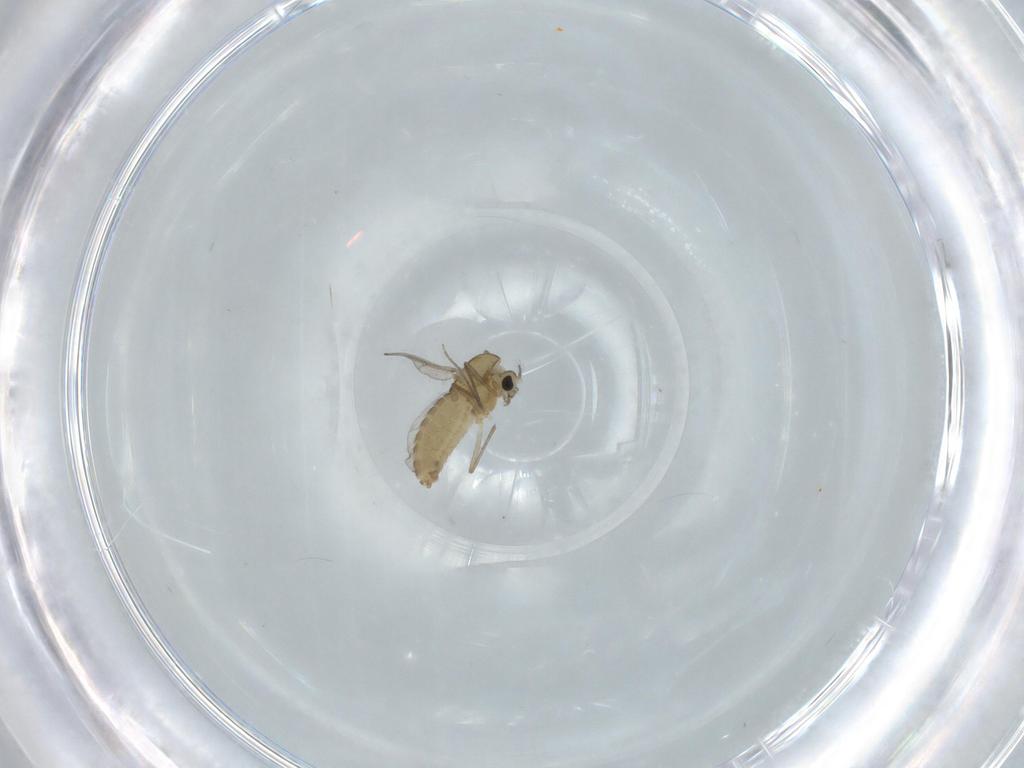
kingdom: Animalia
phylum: Arthropoda
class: Insecta
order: Diptera
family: Chironomidae
